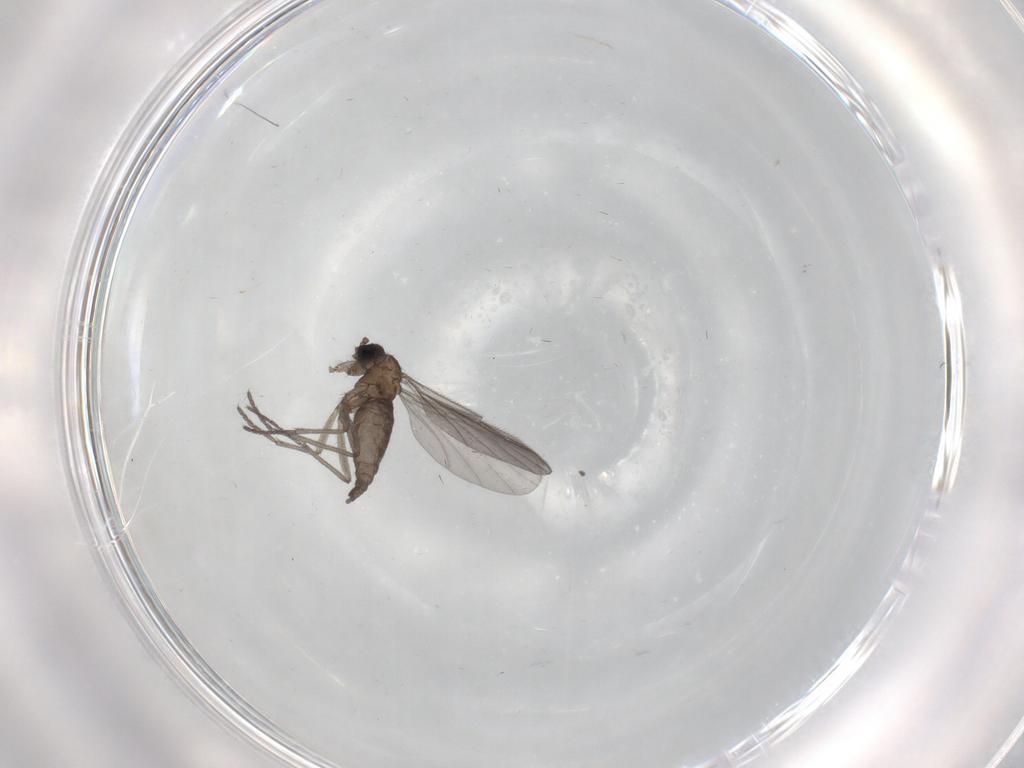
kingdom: Animalia
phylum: Arthropoda
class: Insecta
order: Diptera
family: Sciaridae
